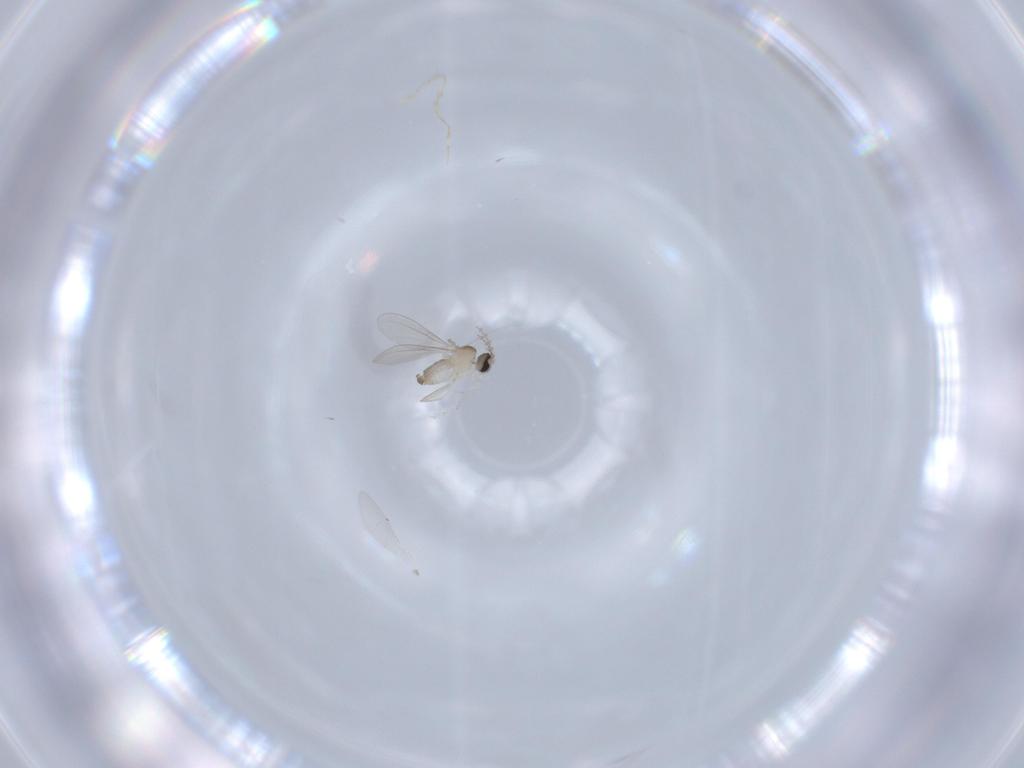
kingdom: Animalia
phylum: Arthropoda
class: Insecta
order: Diptera
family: Cecidomyiidae
